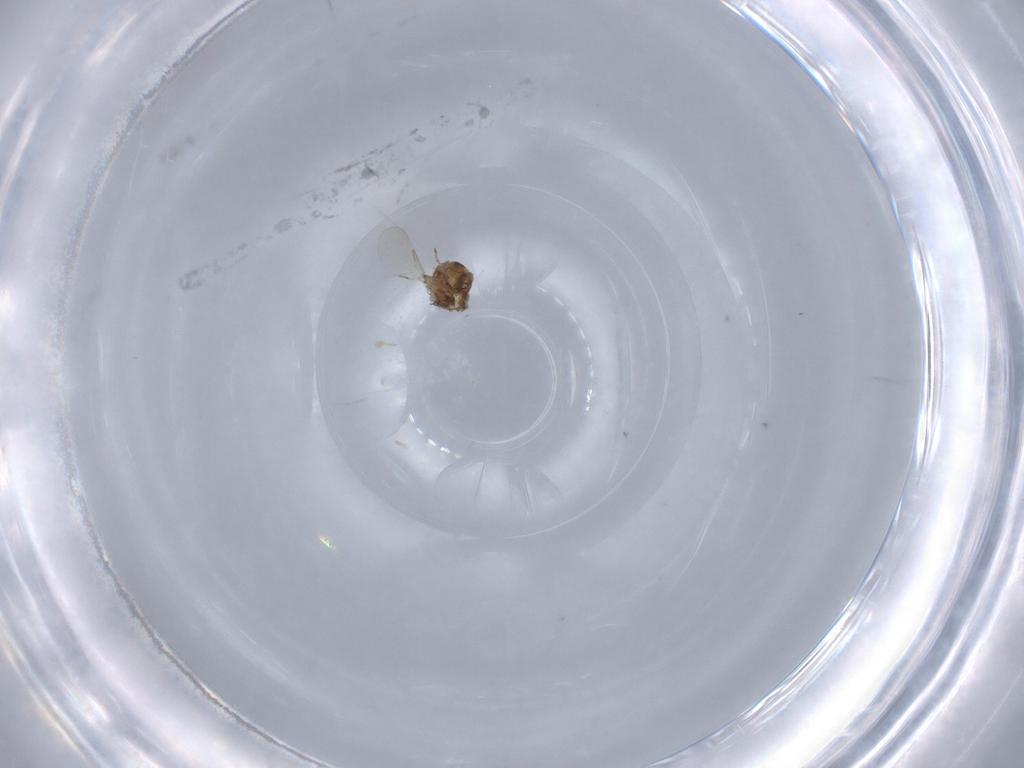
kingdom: Animalia
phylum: Arthropoda
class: Insecta
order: Diptera
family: Ceratopogonidae
